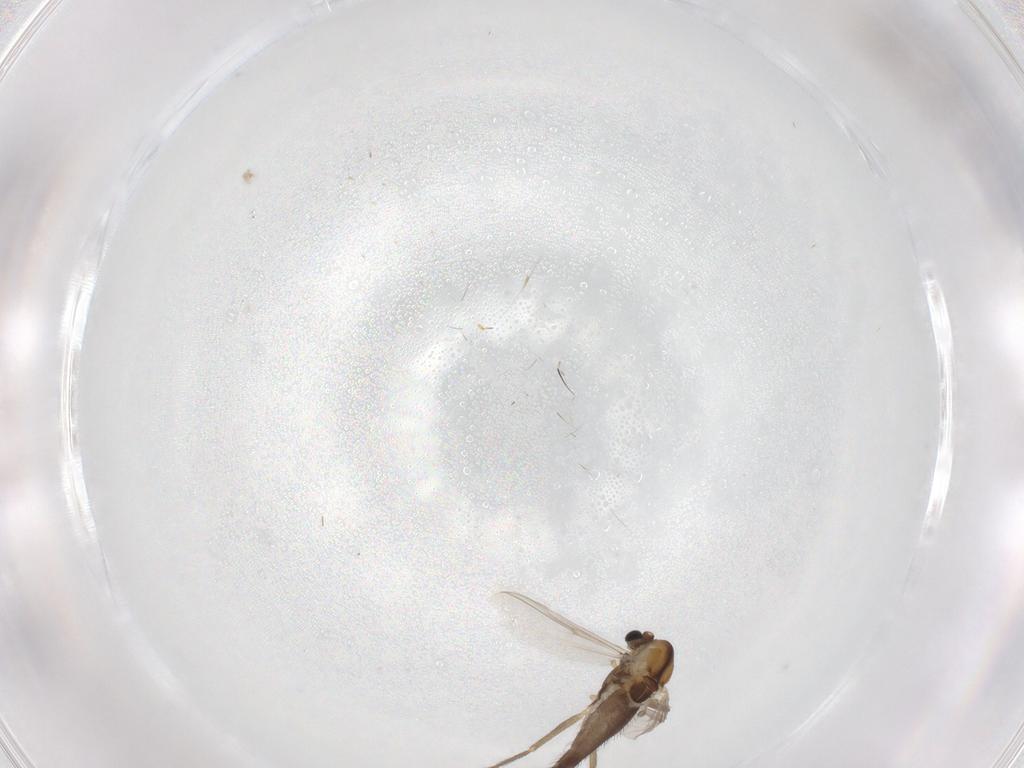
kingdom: Animalia
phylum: Arthropoda
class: Insecta
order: Diptera
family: Chironomidae
